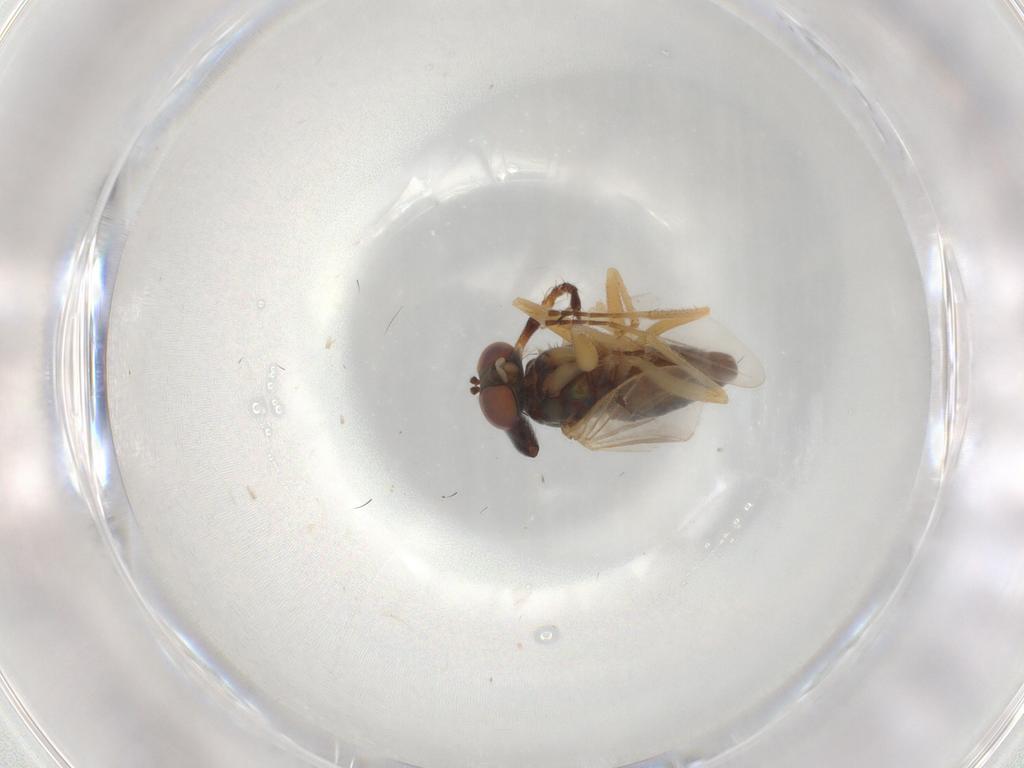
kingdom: Animalia
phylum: Arthropoda
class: Insecta
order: Diptera
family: Dolichopodidae
